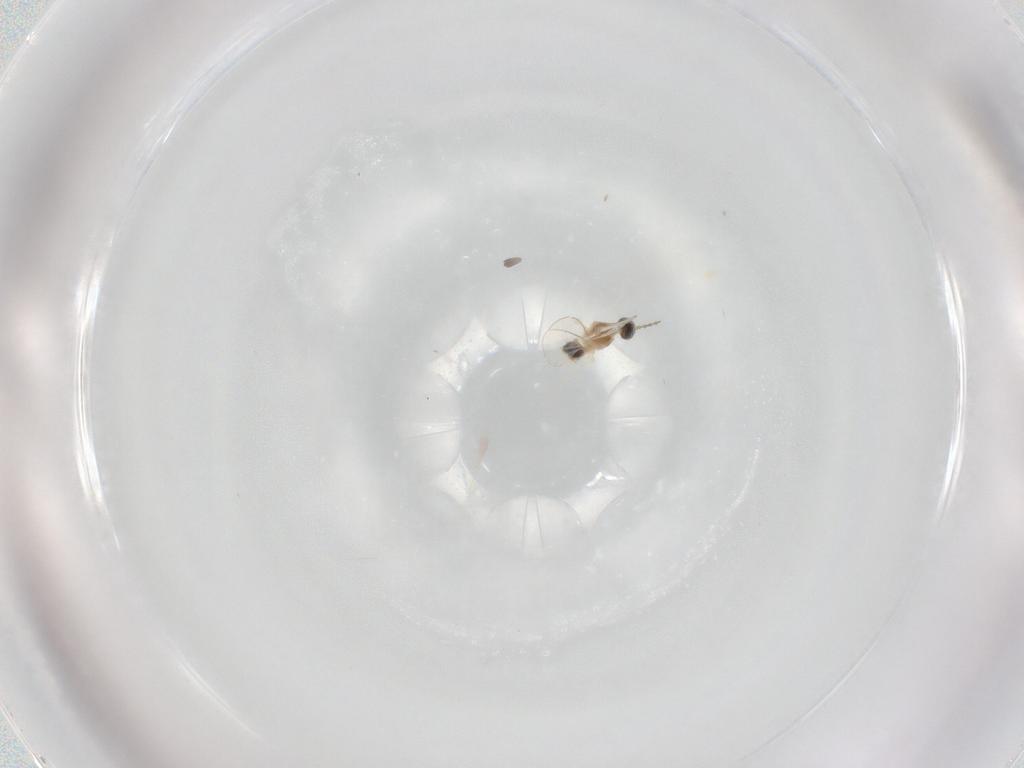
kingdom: Animalia
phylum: Arthropoda
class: Insecta
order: Diptera
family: Cecidomyiidae
